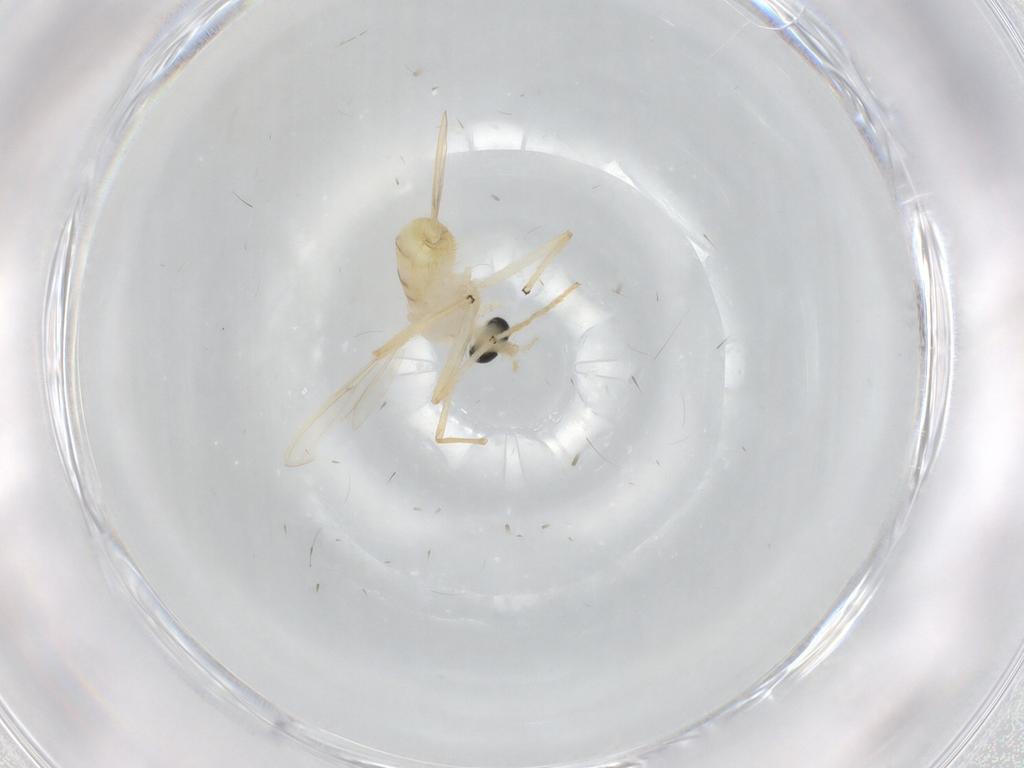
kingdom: Animalia
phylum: Arthropoda
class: Insecta
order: Diptera
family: Chironomidae
